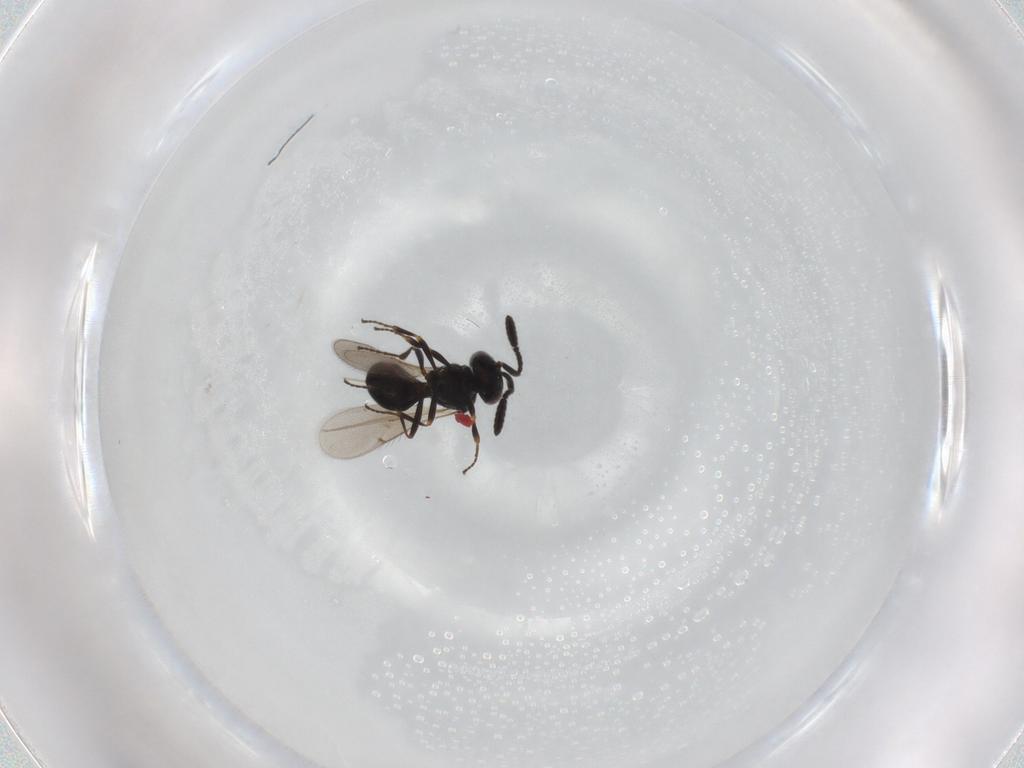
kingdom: Animalia
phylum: Arthropoda
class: Insecta
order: Hymenoptera
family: Scelionidae
